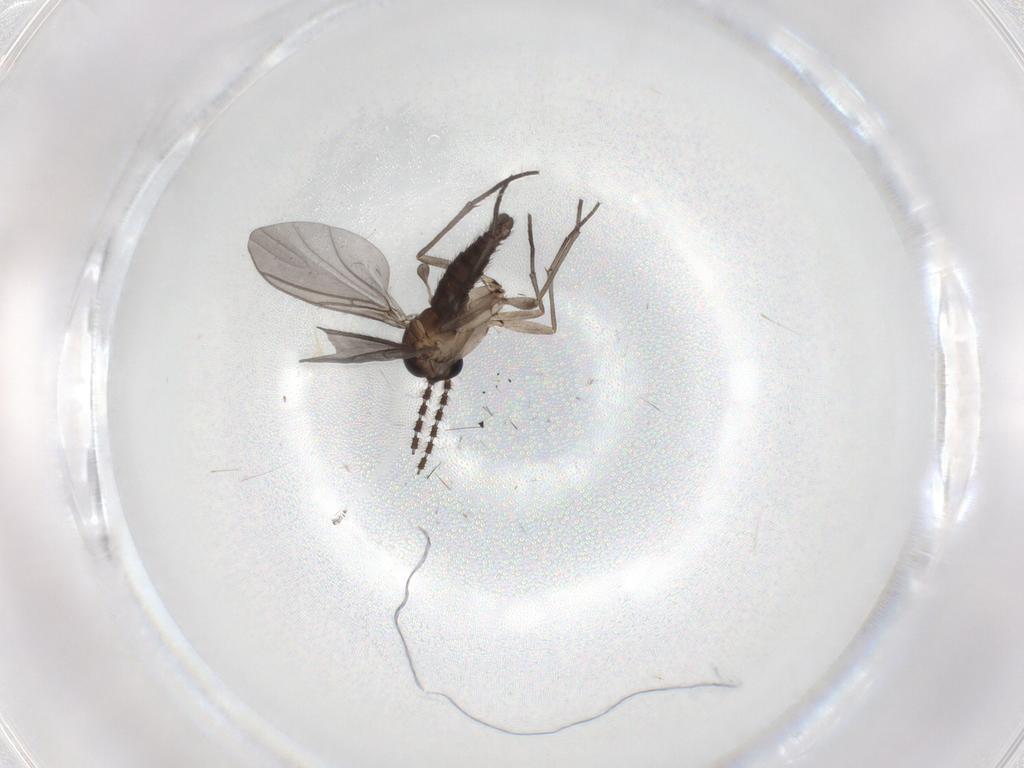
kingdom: Animalia
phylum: Arthropoda
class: Insecta
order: Diptera
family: Sciaridae
